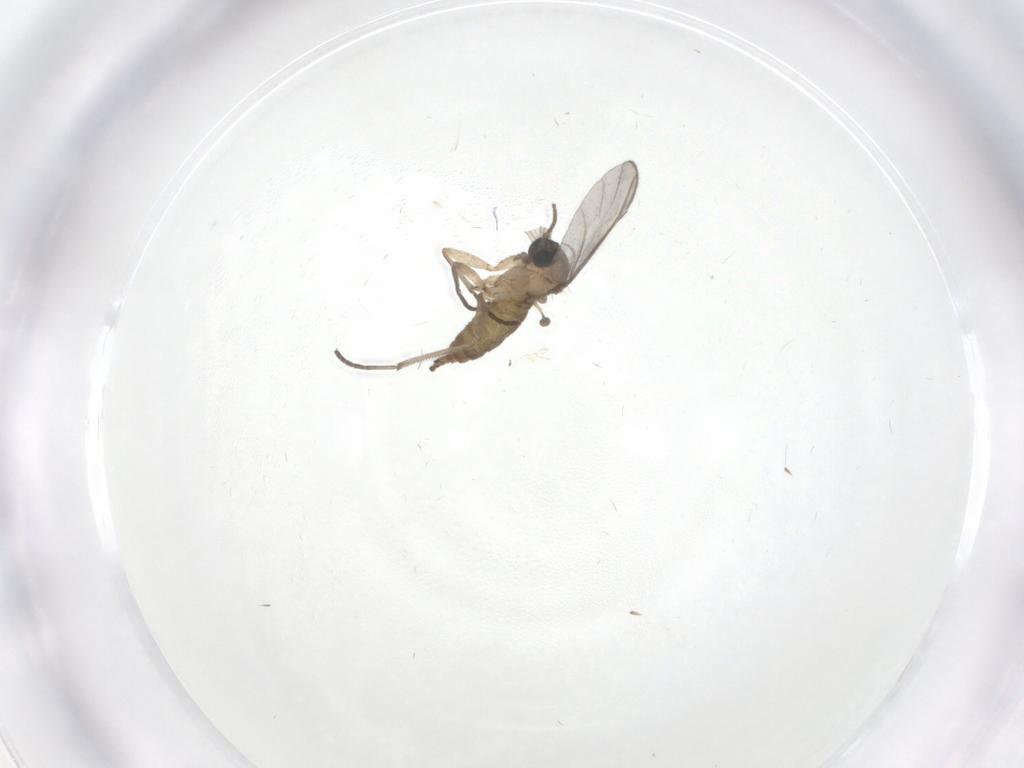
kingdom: Animalia
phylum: Arthropoda
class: Insecta
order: Diptera
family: Sciaridae
